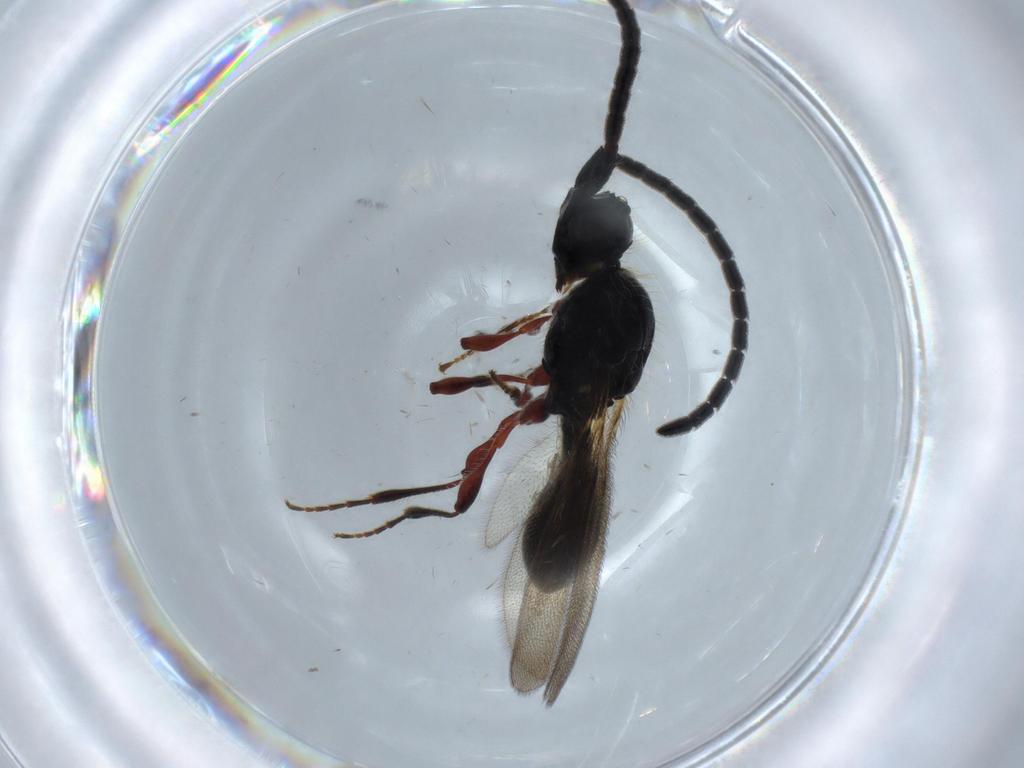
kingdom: Animalia
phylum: Arthropoda
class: Insecta
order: Hymenoptera
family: Diapriidae
